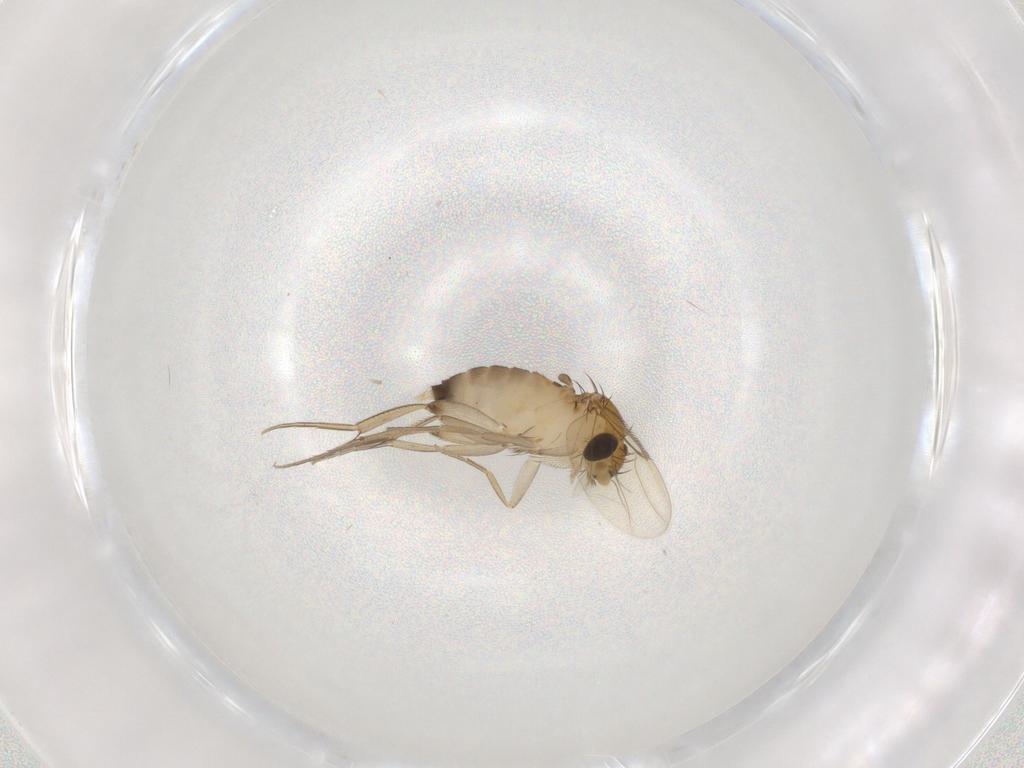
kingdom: Animalia
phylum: Arthropoda
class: Insecta
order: Diptera
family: Phoridae
